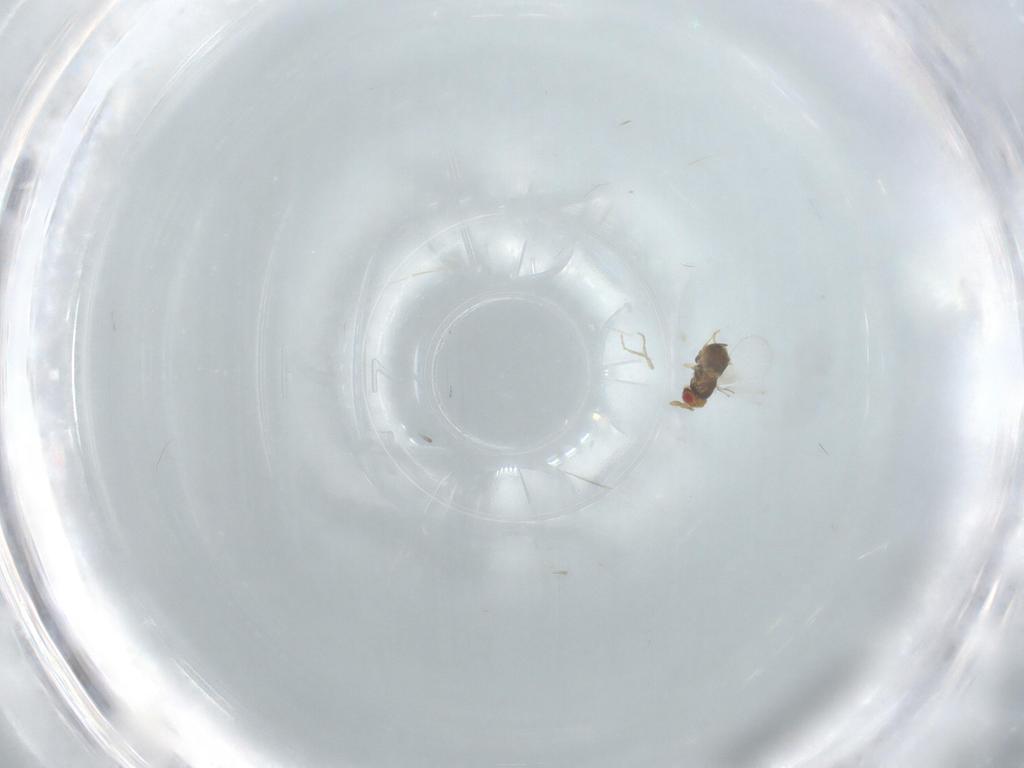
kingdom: Animalia
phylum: Arthropoda
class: Insecta
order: Hymenoptera
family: Trichogrammatidae
